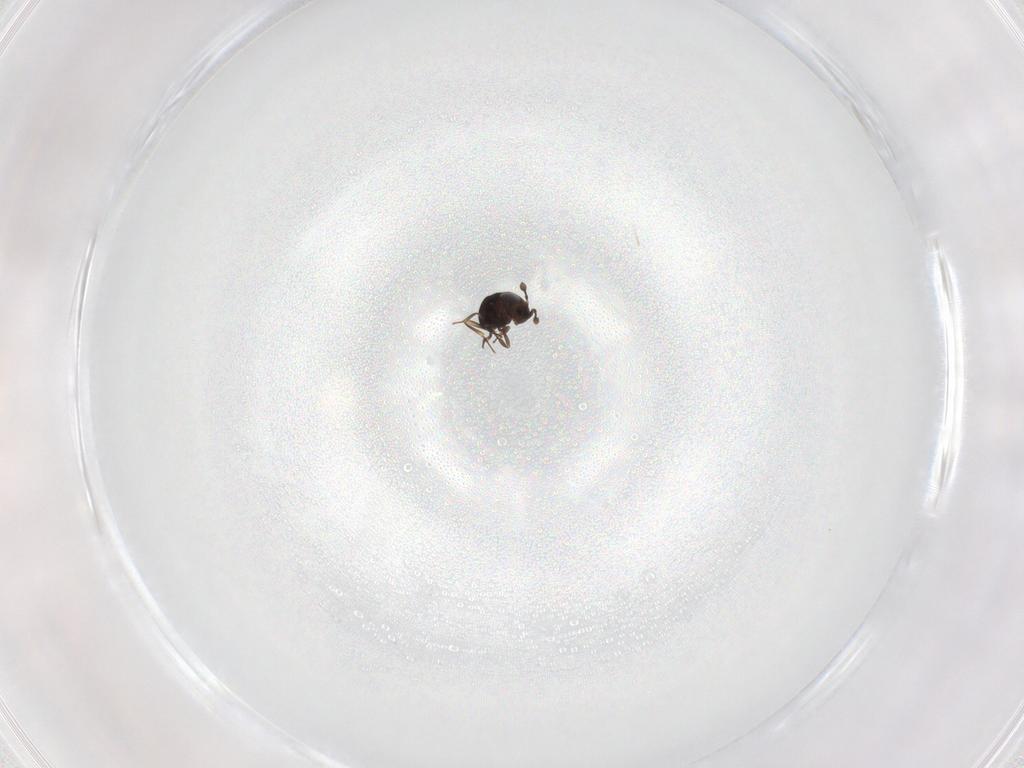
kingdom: Animalia
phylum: Arthropoda
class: Insecta
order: Hymenoptera
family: Scelionidae
